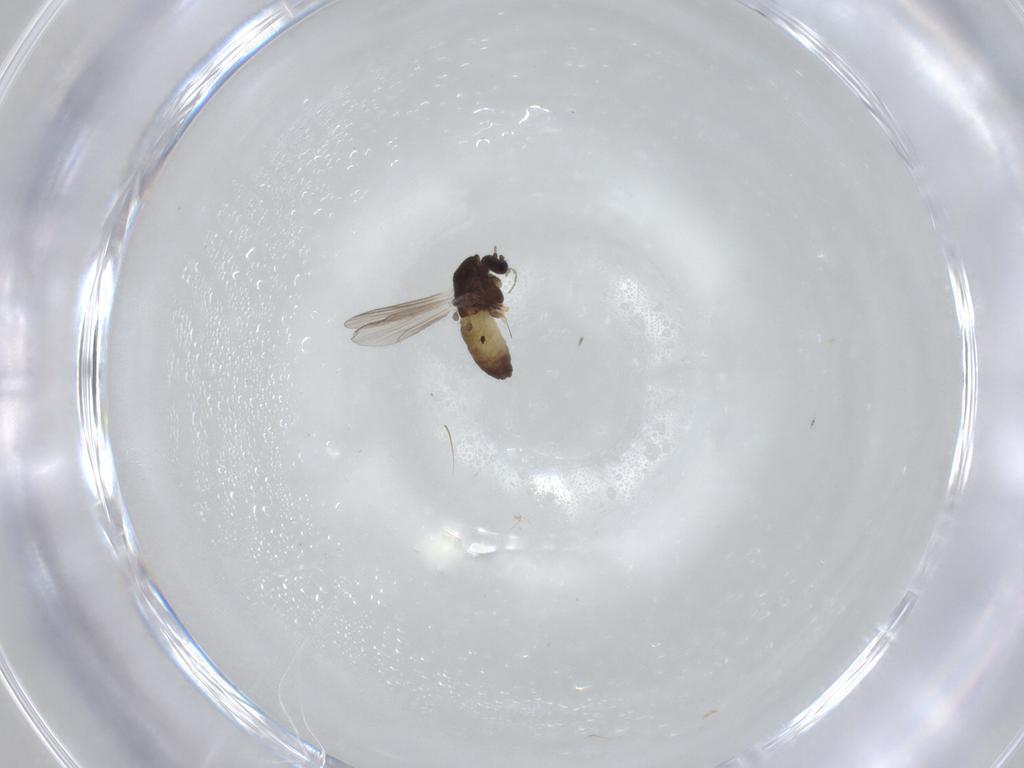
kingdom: Animalia
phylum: Arthropoda
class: Insecta
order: Diptera
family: Chironomidae
